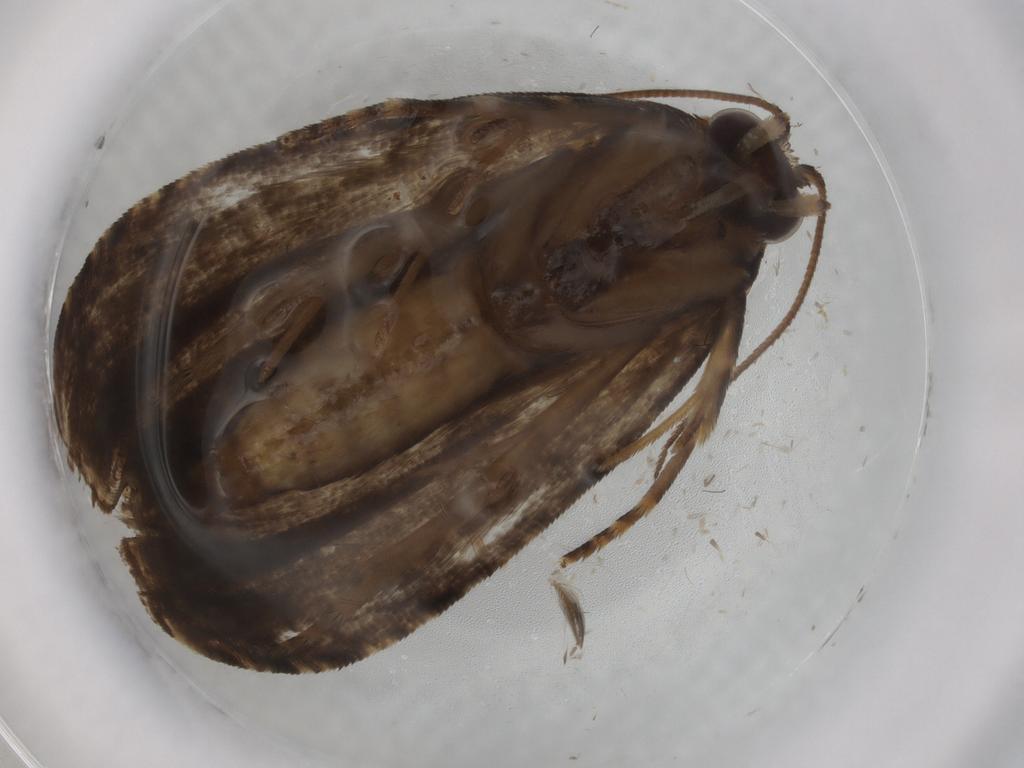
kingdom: Animalia
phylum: Arthropoda
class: Insecta
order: Lepidoptera
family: Tortricidae
